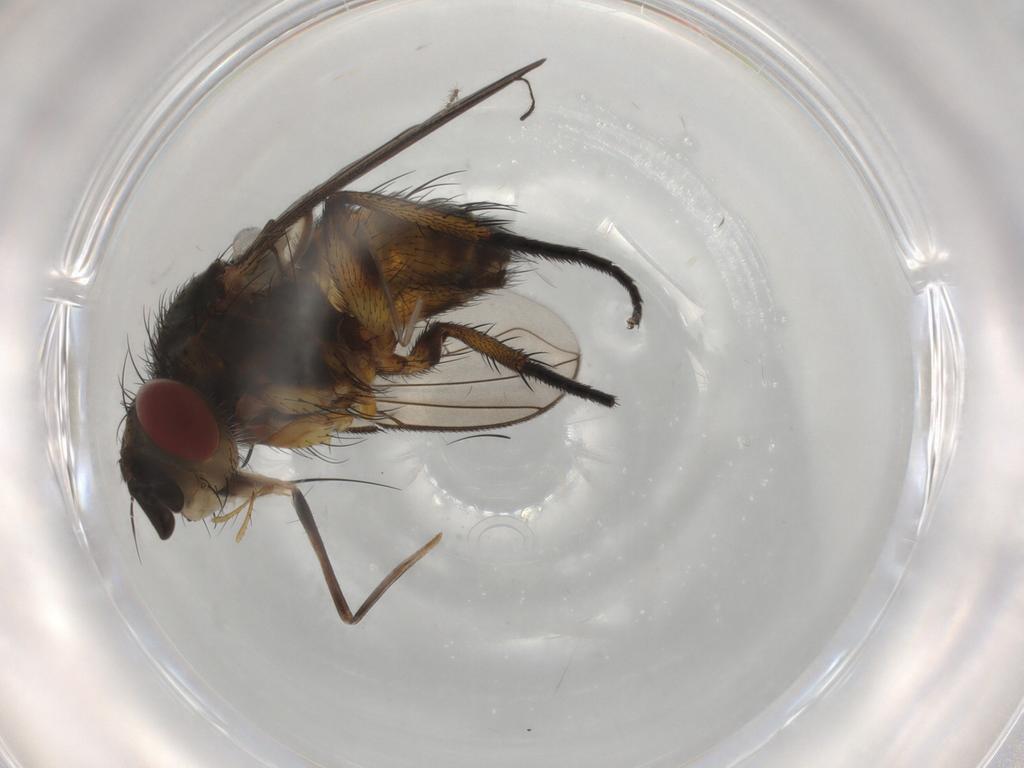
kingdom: Animalia
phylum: Arthropoda
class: Insecta
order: Diptera
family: Tachinidae
